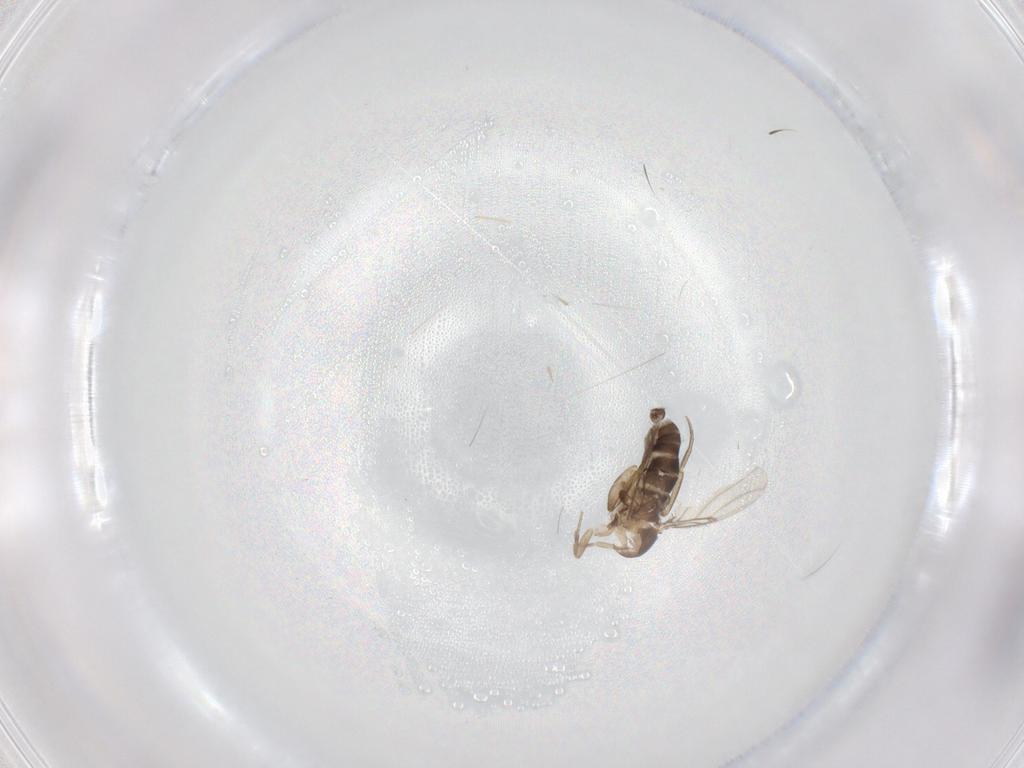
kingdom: Animalia
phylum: Arthropoda
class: Insecta
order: Diptera
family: Phoridae
